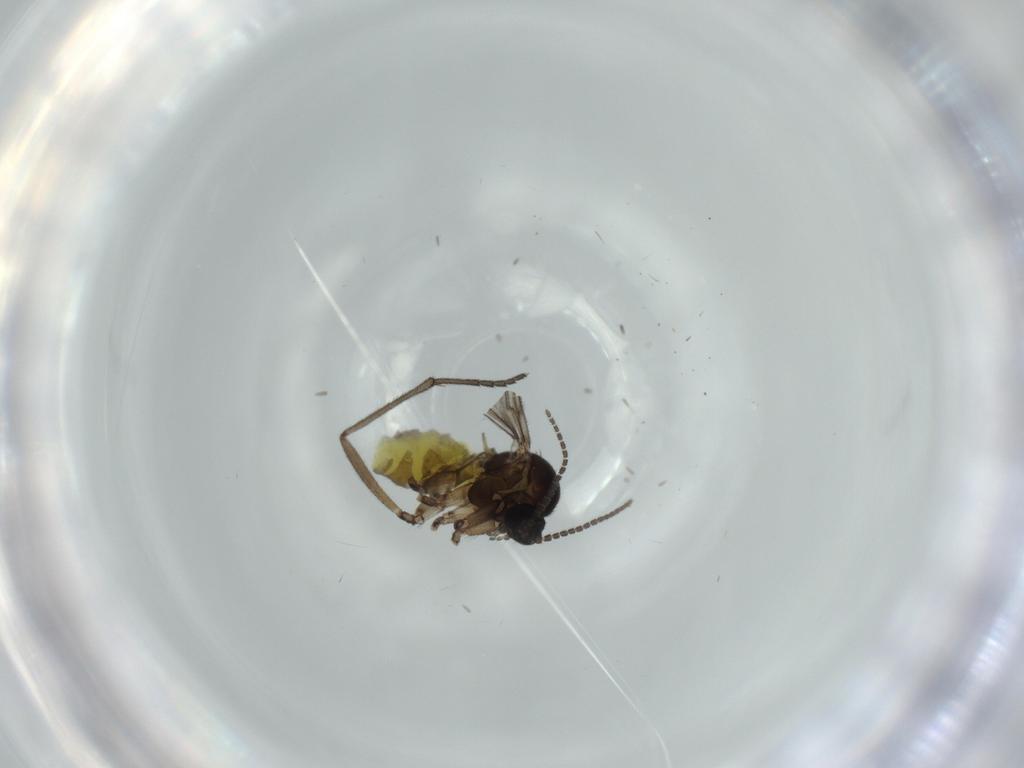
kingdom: Animalia
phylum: Arthropoda
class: Insecta
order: Diptera
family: Sciaridae
